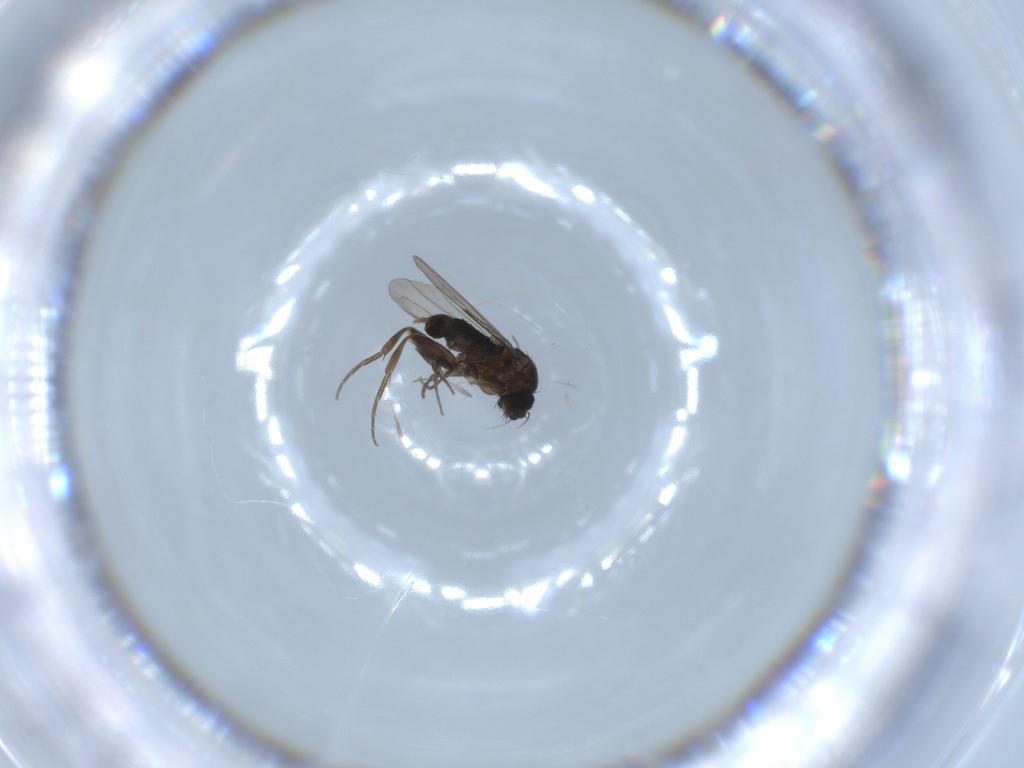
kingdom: Animalia
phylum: Arthropoda
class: Insecta
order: Diptera
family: Phoridae
